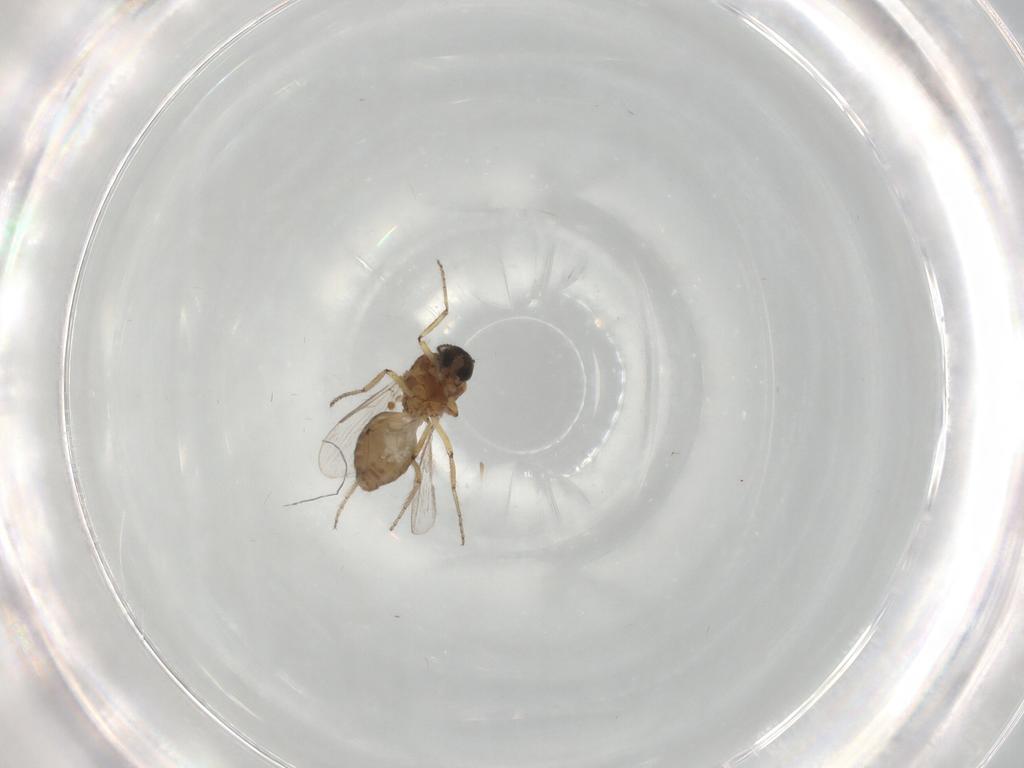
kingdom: Animalia
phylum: Arthropoda
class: Insecta
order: Diptera
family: Ceratopogonidae
